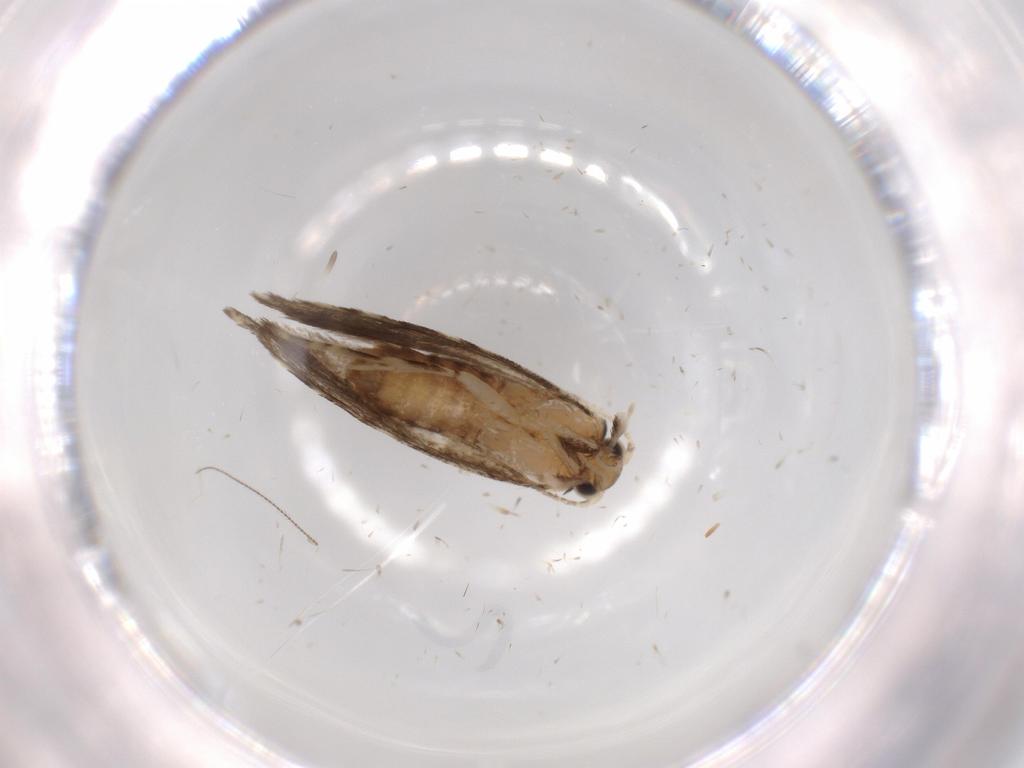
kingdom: Animalia
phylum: Arthropoda
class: Insecta
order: Lepidoptera
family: Tineidae
